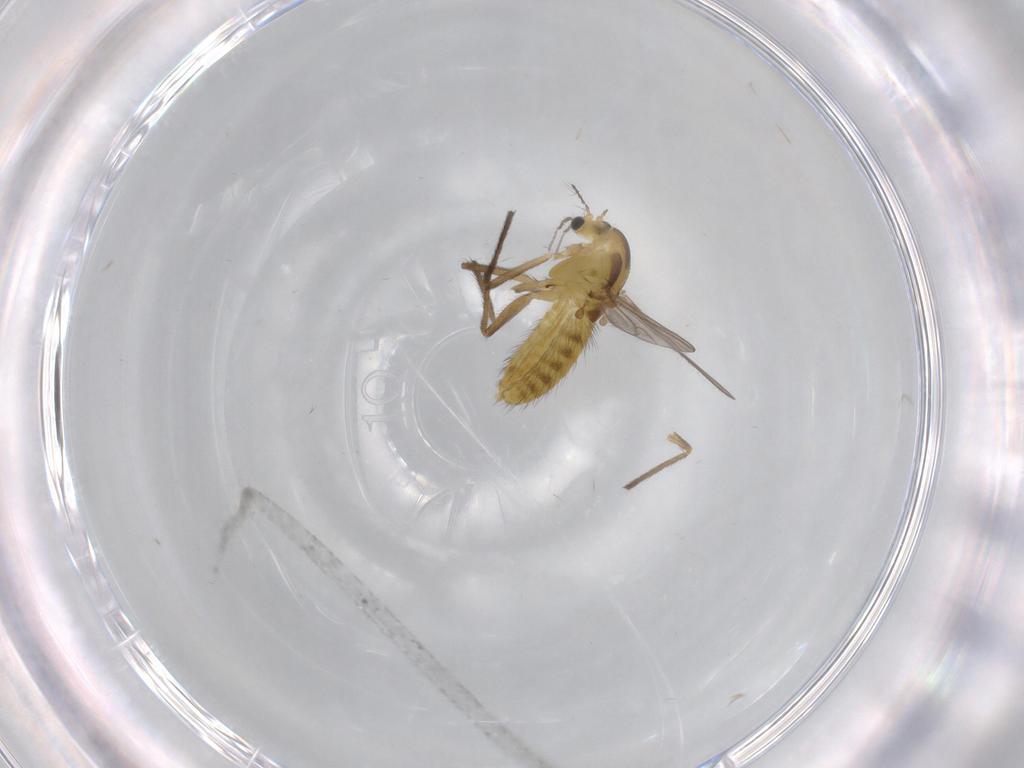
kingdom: Animalia
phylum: Arthropoda
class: Insecta
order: Diptera
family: Chironomidae
